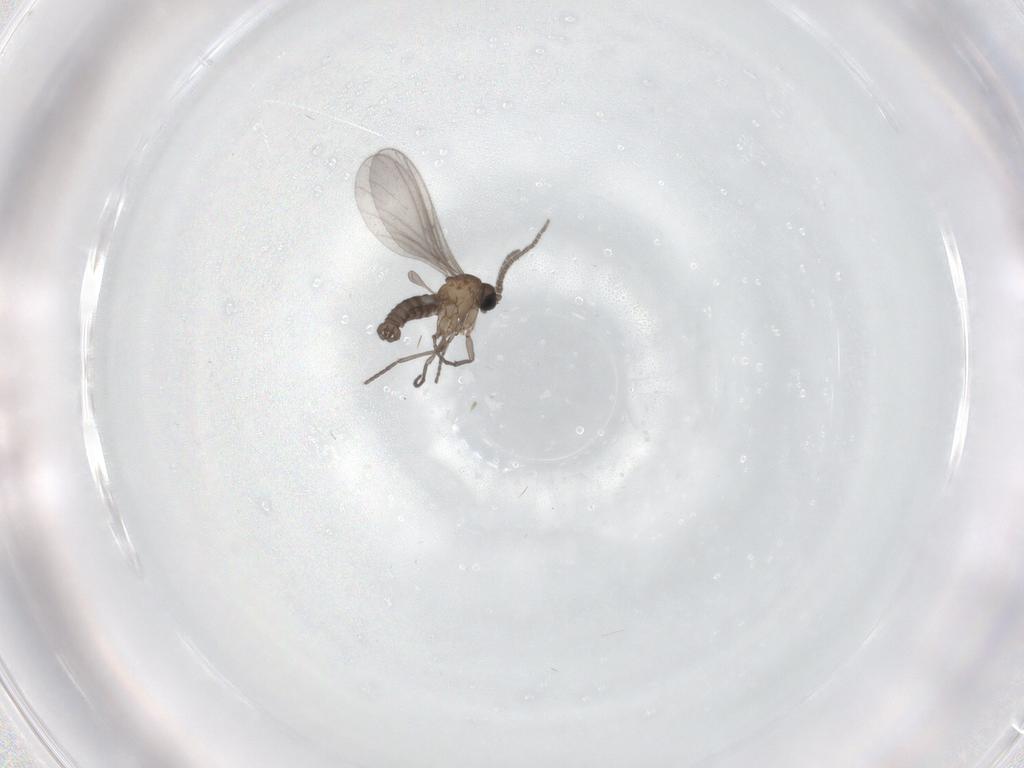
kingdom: Animalia
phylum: Arthropoda
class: Insecta
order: Diptera
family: Sciaridae
